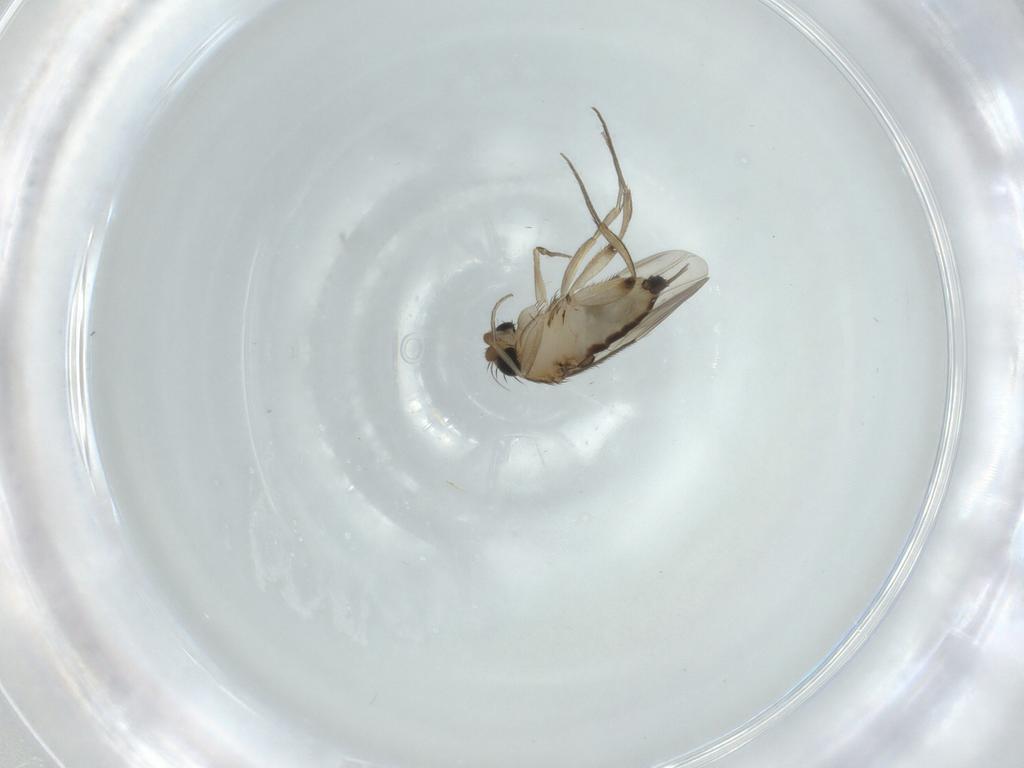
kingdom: Animalia
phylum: Arthropoda
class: Insecta
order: Diptera
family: Phoridae
